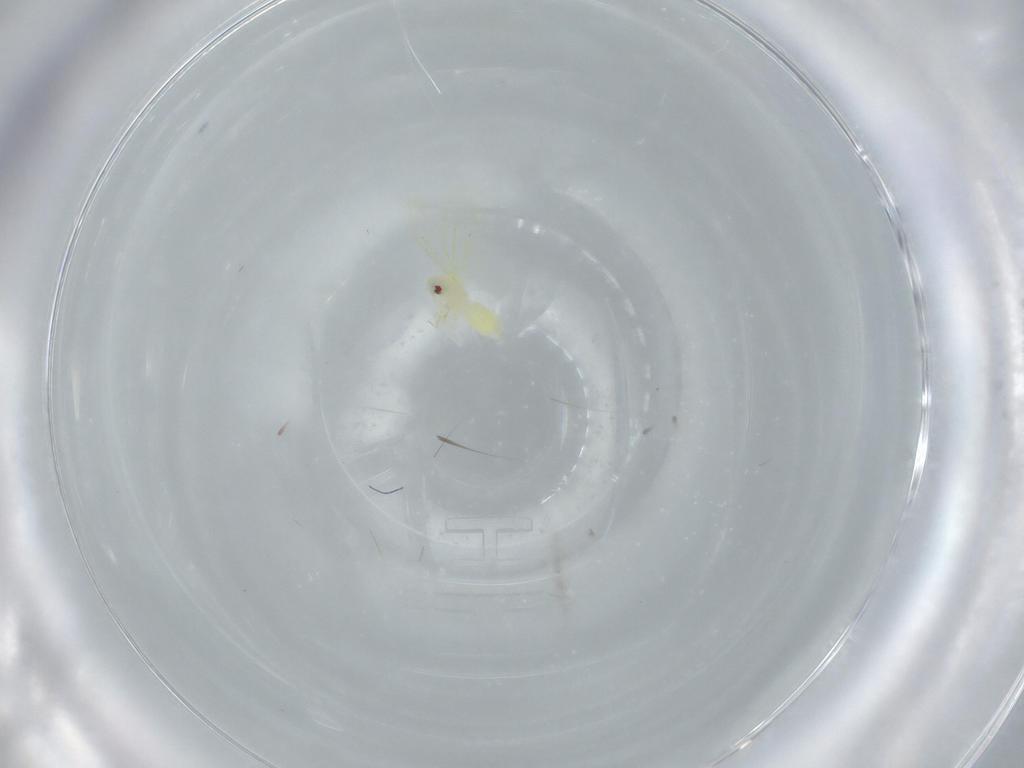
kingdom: Animalia
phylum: Arthropoda
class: Insecta
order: Hemiptera
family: Aleyrodidae
